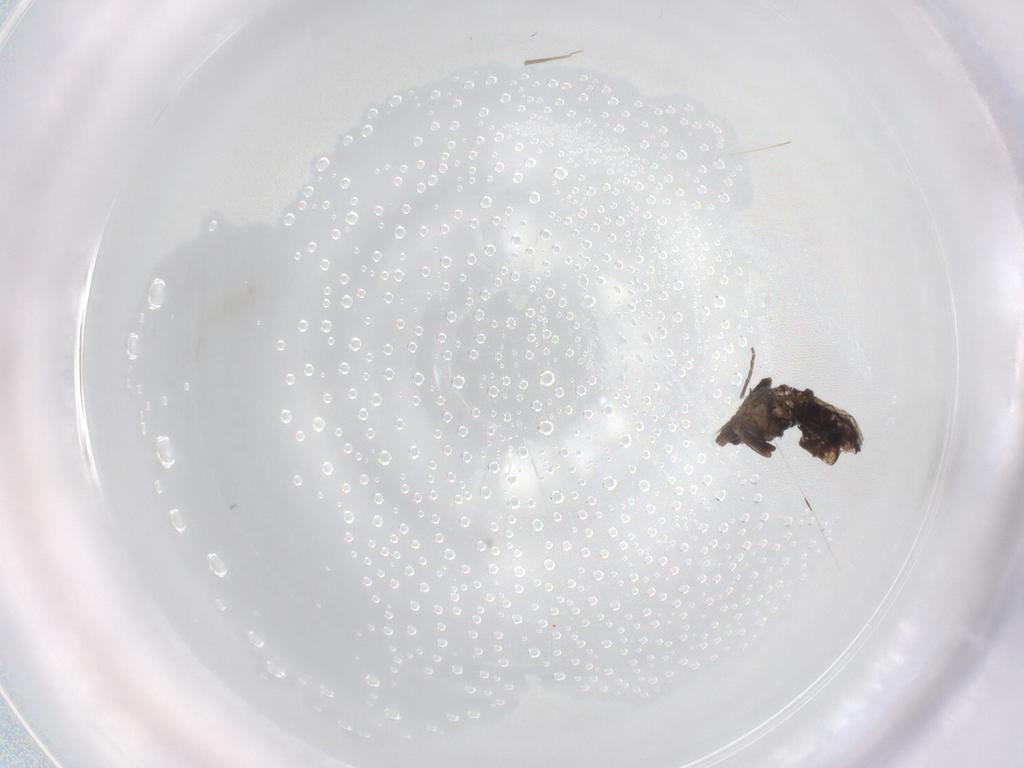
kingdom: Animalia
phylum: Arthropoda
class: Insecta
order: Diptera
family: Phoridae
